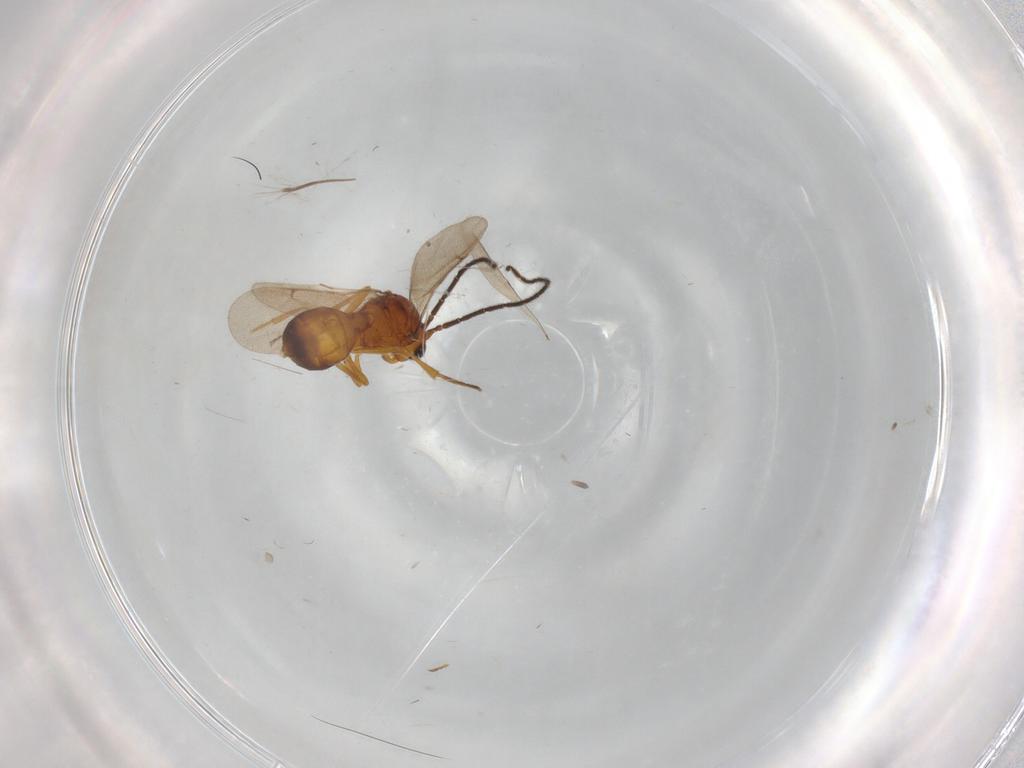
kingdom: Animalia
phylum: Arthropoda
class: Insecta
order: Hymenoptera
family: Scelionidae
